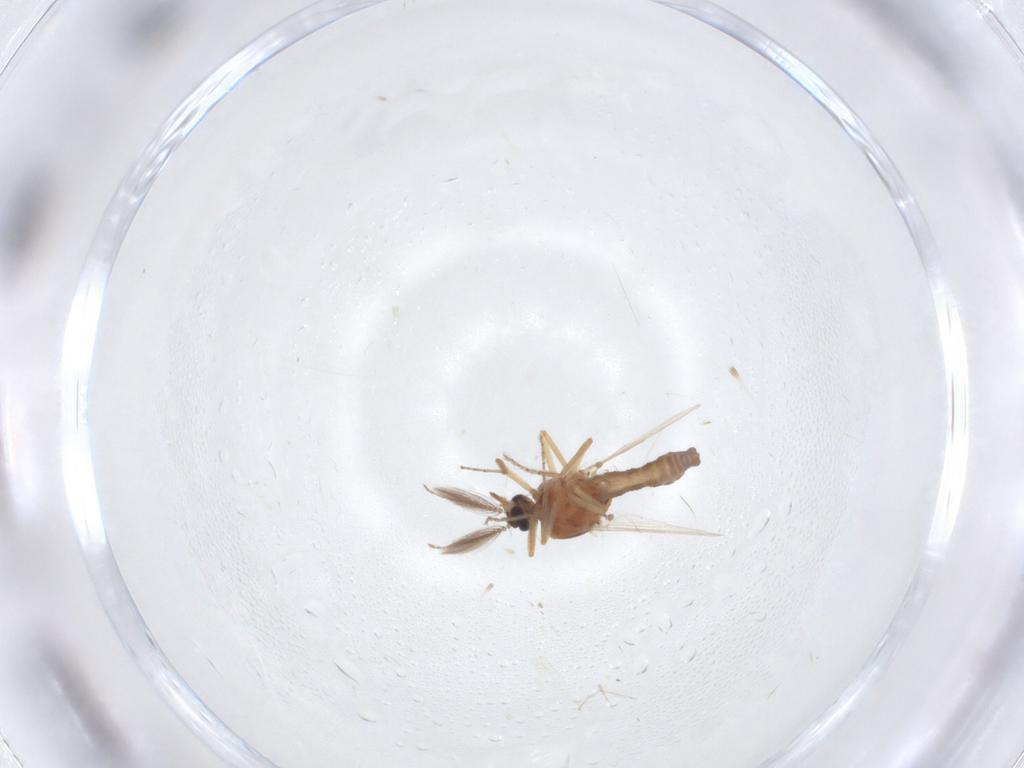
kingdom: Animalia
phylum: Arthropoda
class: Insecta
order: Diptera
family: Ceratopogonidae
